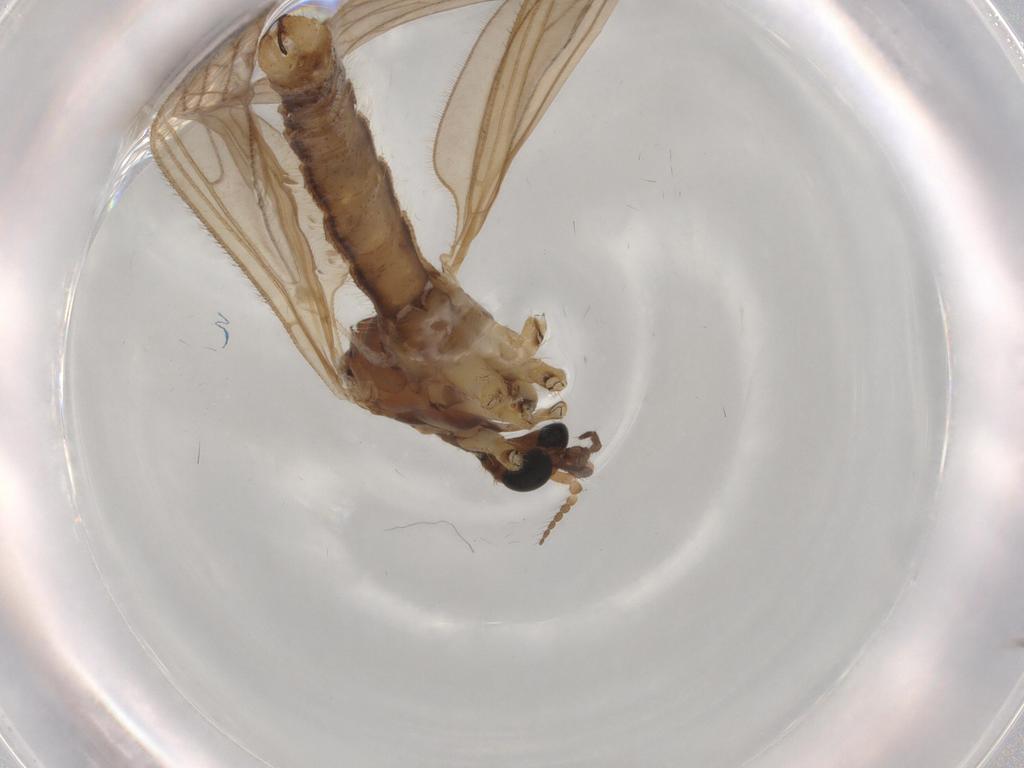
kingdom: Animalia
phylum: Arthropoda
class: Insecta
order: Diptera
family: Limoniidae
